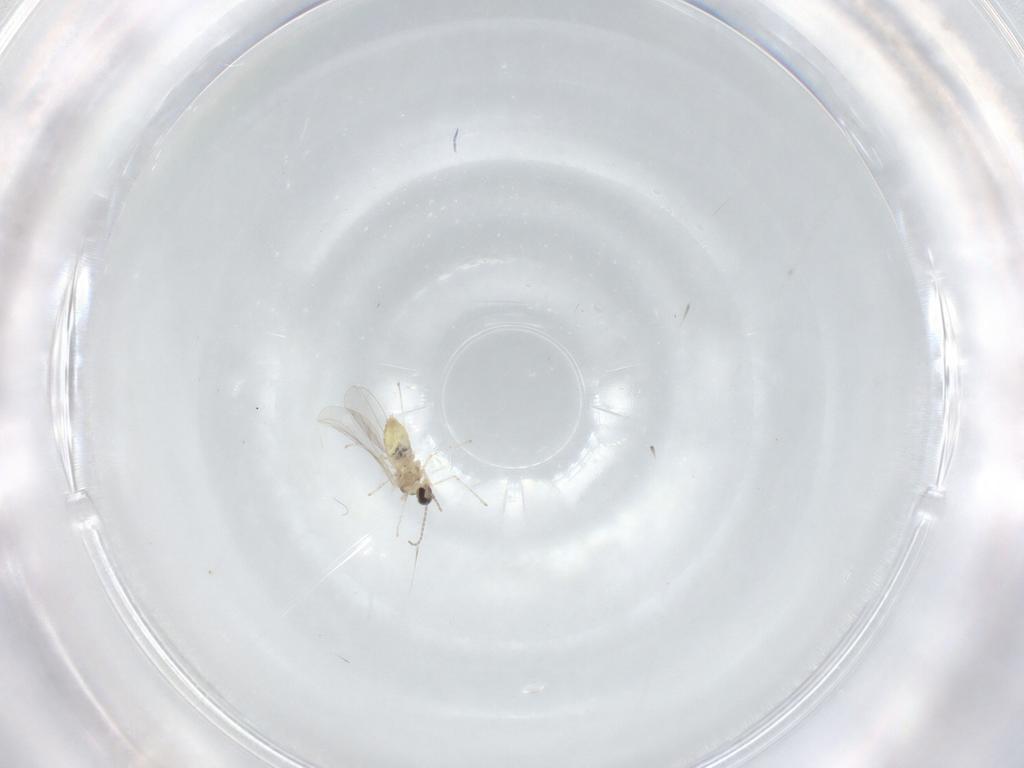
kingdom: Animalia
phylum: Arthropoda
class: Insecta
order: Diptera
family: Cecidomyiidae
